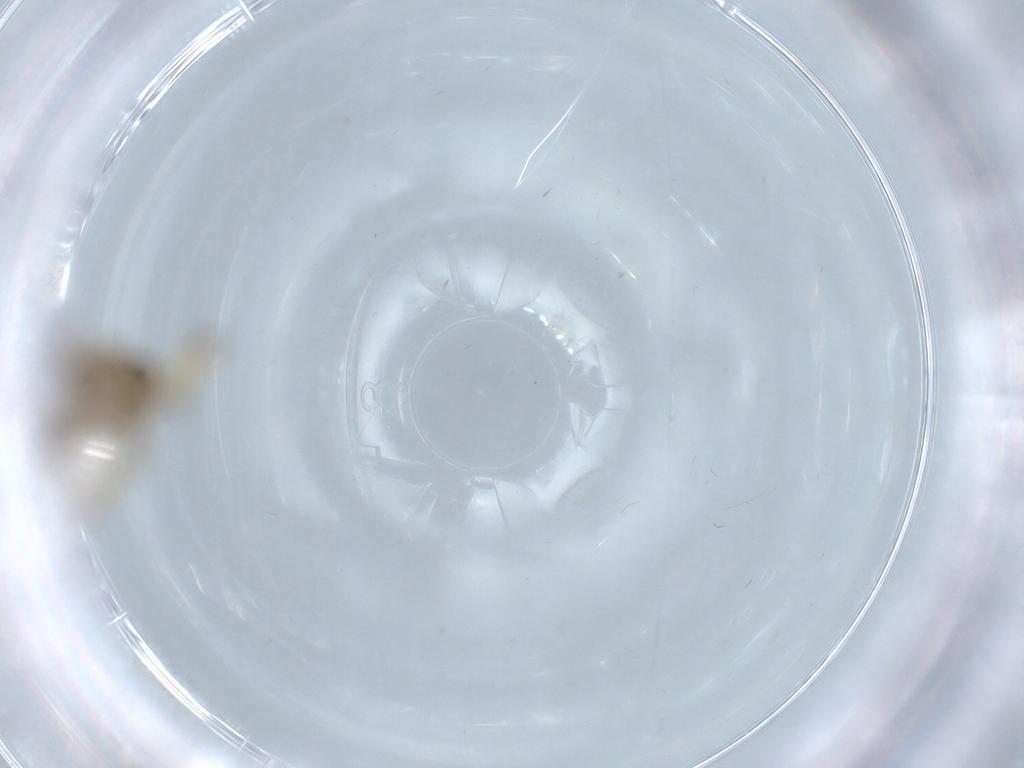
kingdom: Animalia
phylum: Arthropoda
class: Insecta
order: Diptera
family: Chironomidae
